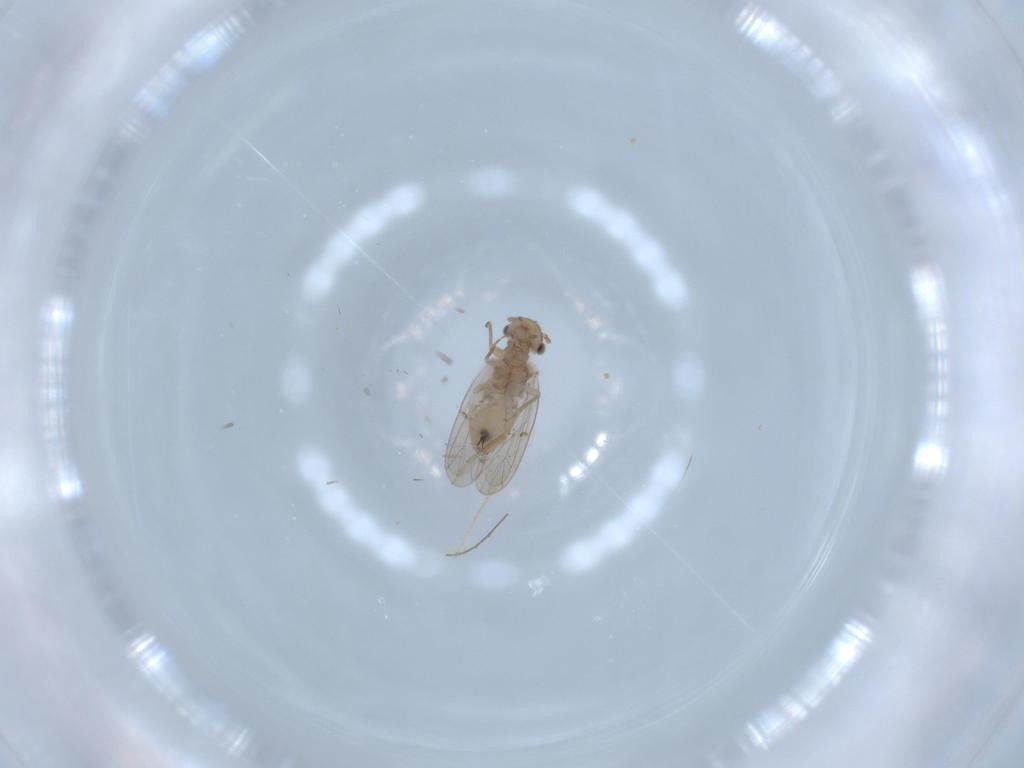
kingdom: Animalia
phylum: Arthropoda
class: Insecta
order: Psocodea
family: Ectopsocidae
